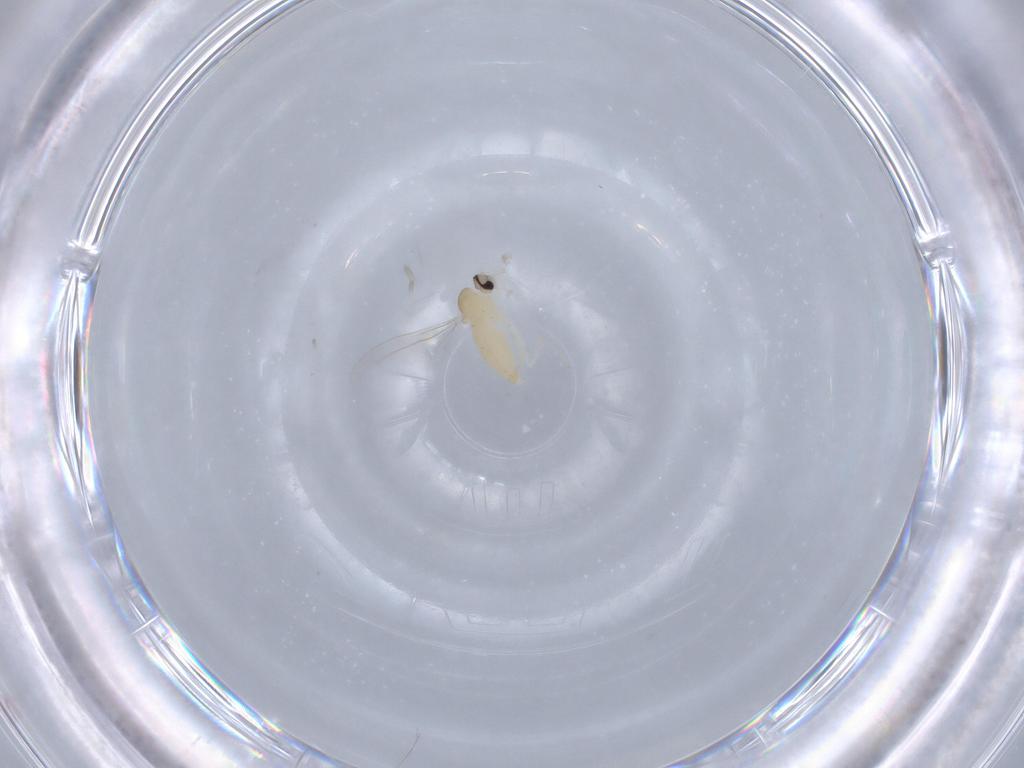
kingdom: Animalia
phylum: Arthropoda
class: Insecta
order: Diptera
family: Cecidomyiidae
